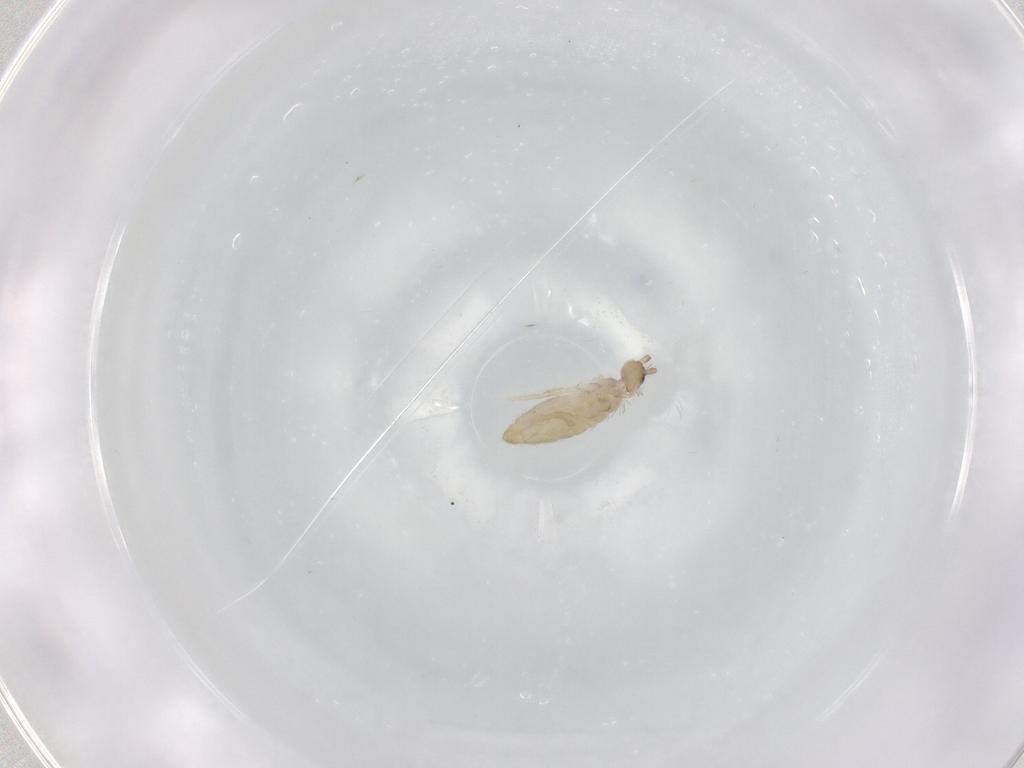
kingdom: Animalia
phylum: Arthropoda
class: Collembola
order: Entomobryomorpha
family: Entomobryidae
